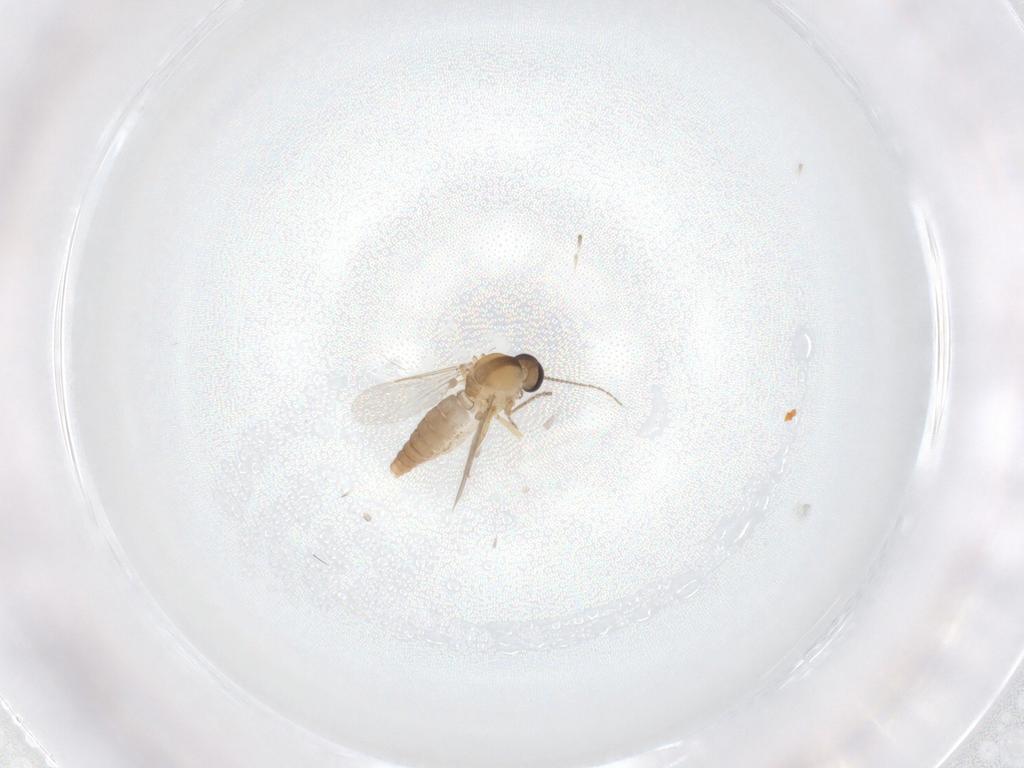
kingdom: Animalia
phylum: Arthropoda
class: Insecta
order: Diptera
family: Ceratopogonidae
